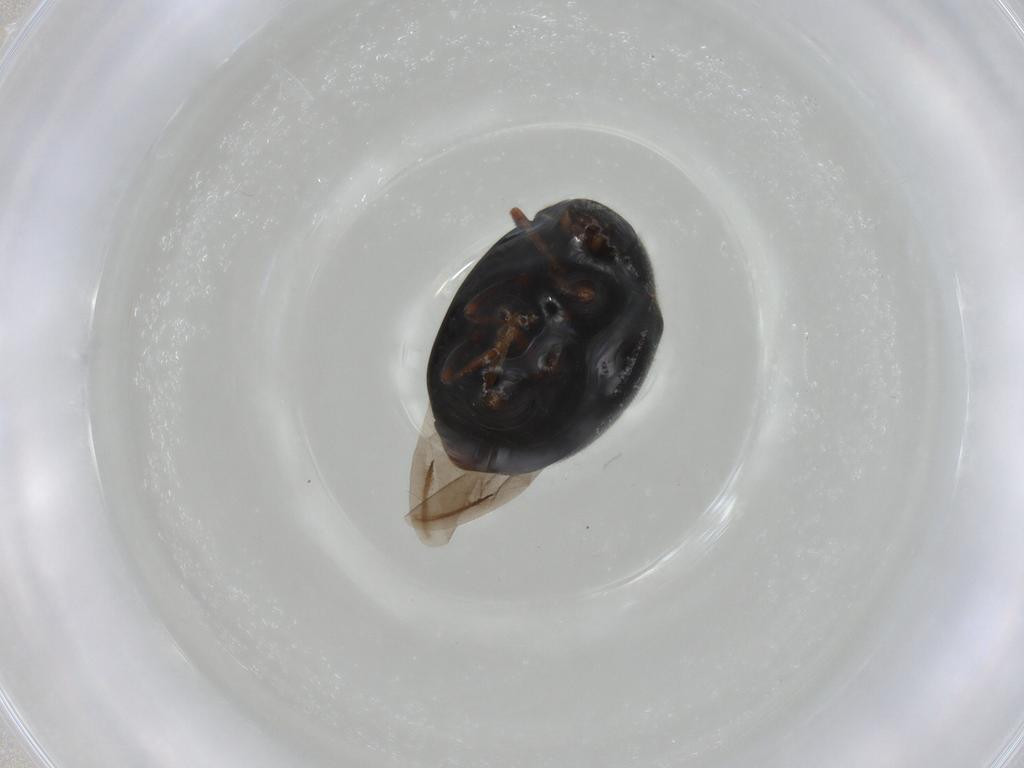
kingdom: Animalia
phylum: Arthropoda
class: Insecta
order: Coleoptera
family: Coccinellidae
